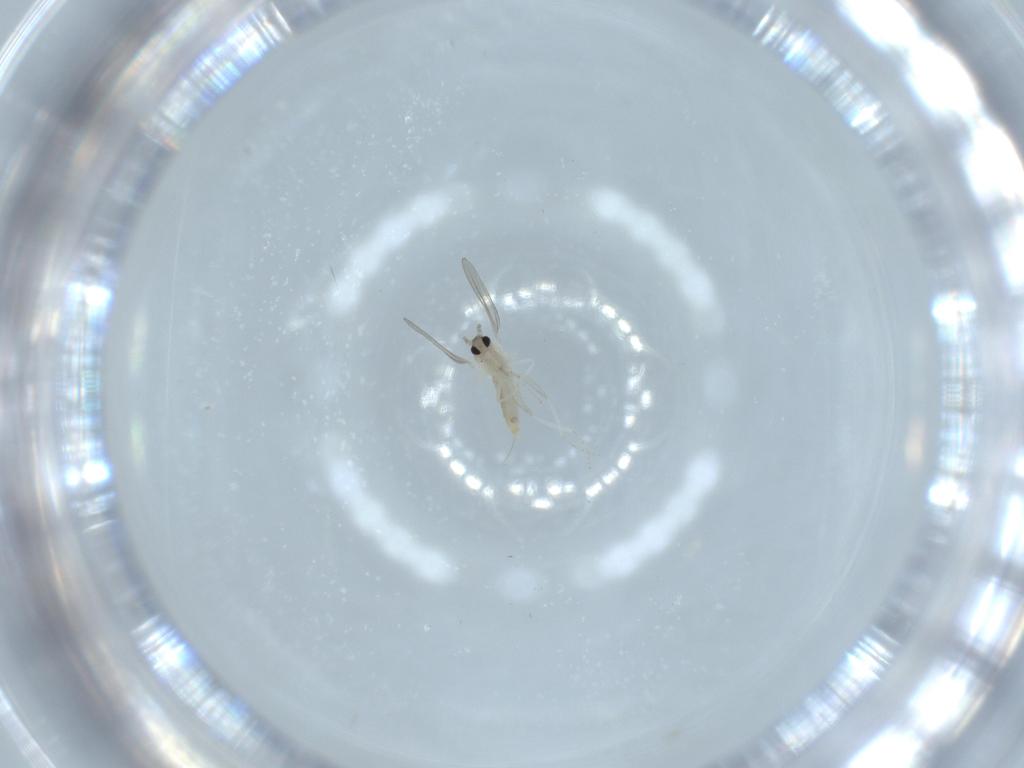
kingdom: Animalia
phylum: Arthropoda
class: Insecta
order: Diptera
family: Cecidomyiidae
